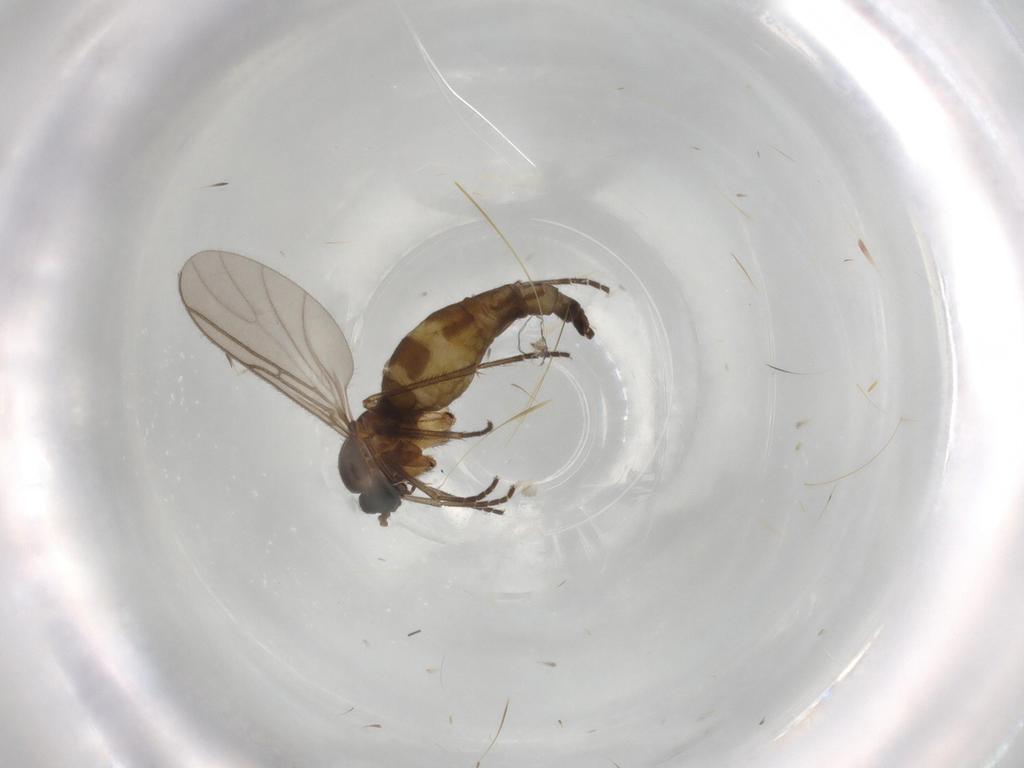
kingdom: Animalia
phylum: Arthropoda
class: Insecta
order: Diptera
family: Sciaridae
